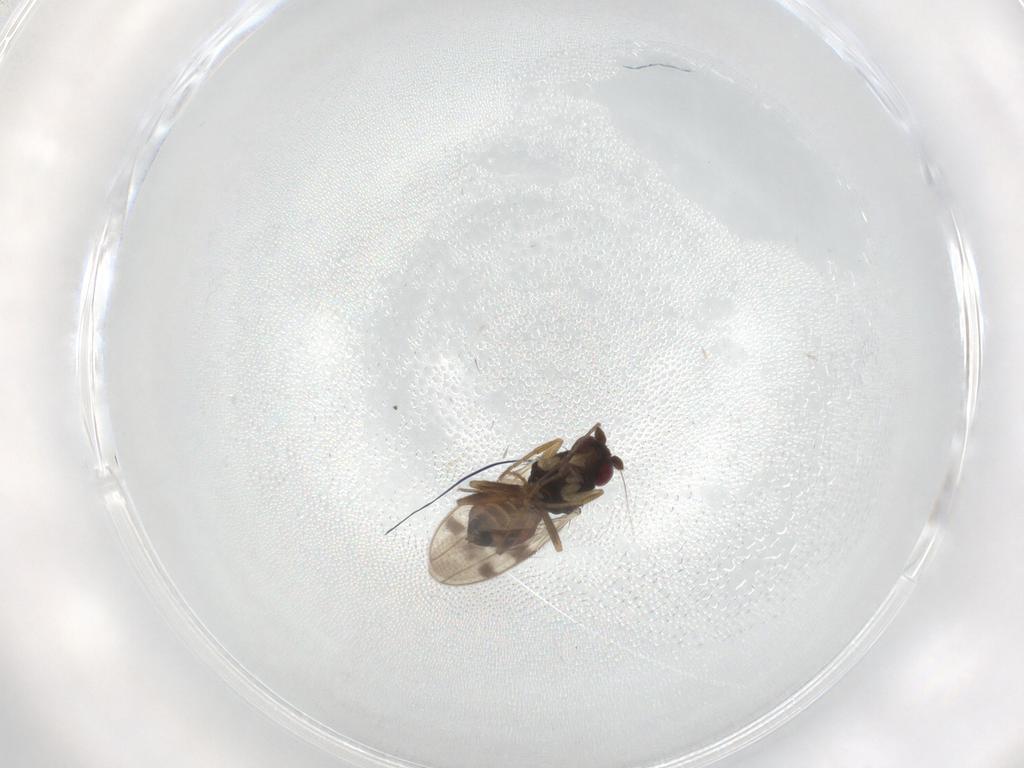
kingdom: Animalia
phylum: Arthropoda
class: Insecta
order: Diptera
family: Sphaeroceridae
